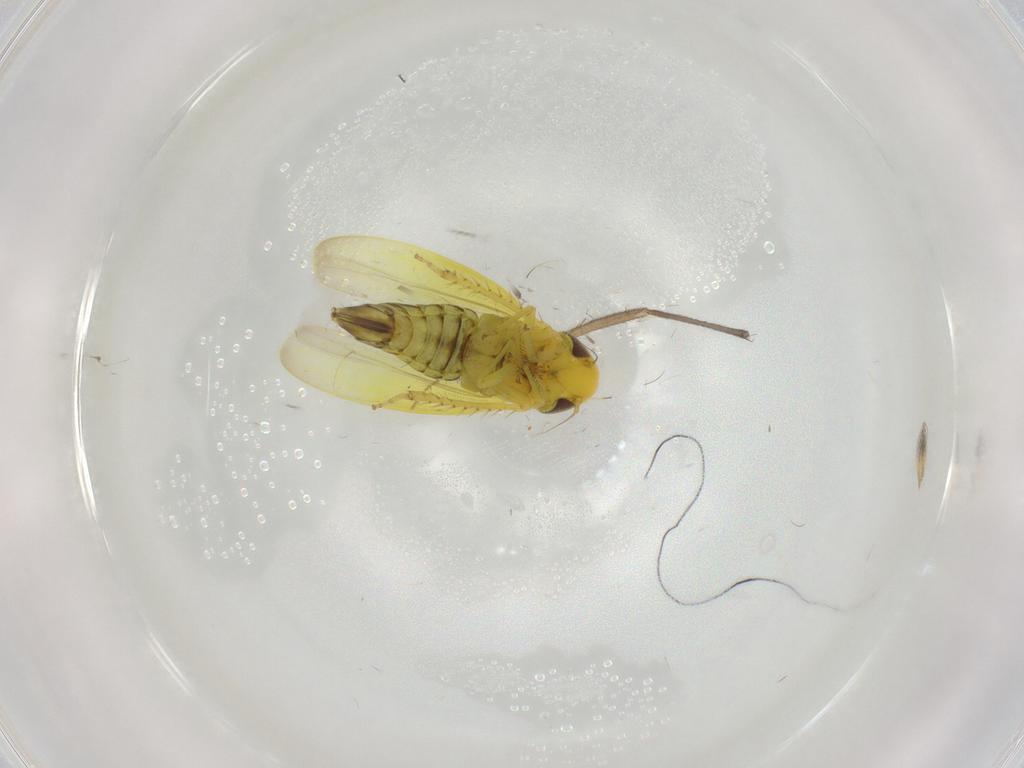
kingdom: Animalia
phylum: Arthropoda
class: Insecta
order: Hemiptera
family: Cicadellidae
